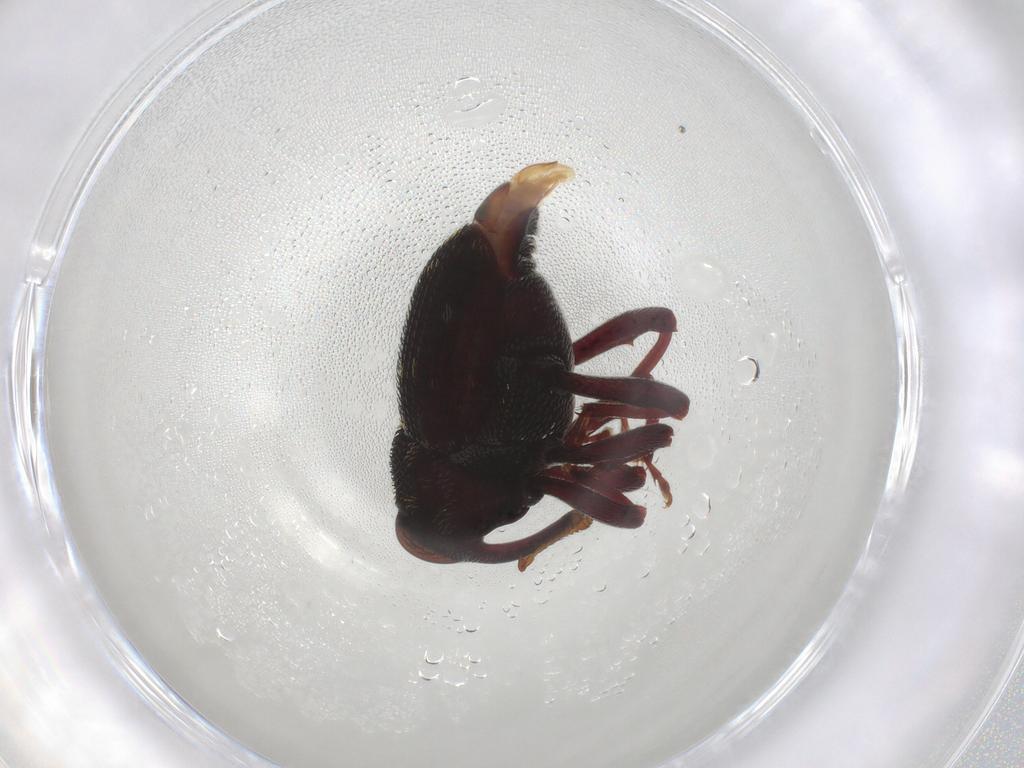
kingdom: Animalia
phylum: Arthropoda
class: Insecta
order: Coleoptera
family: Curculionidae
